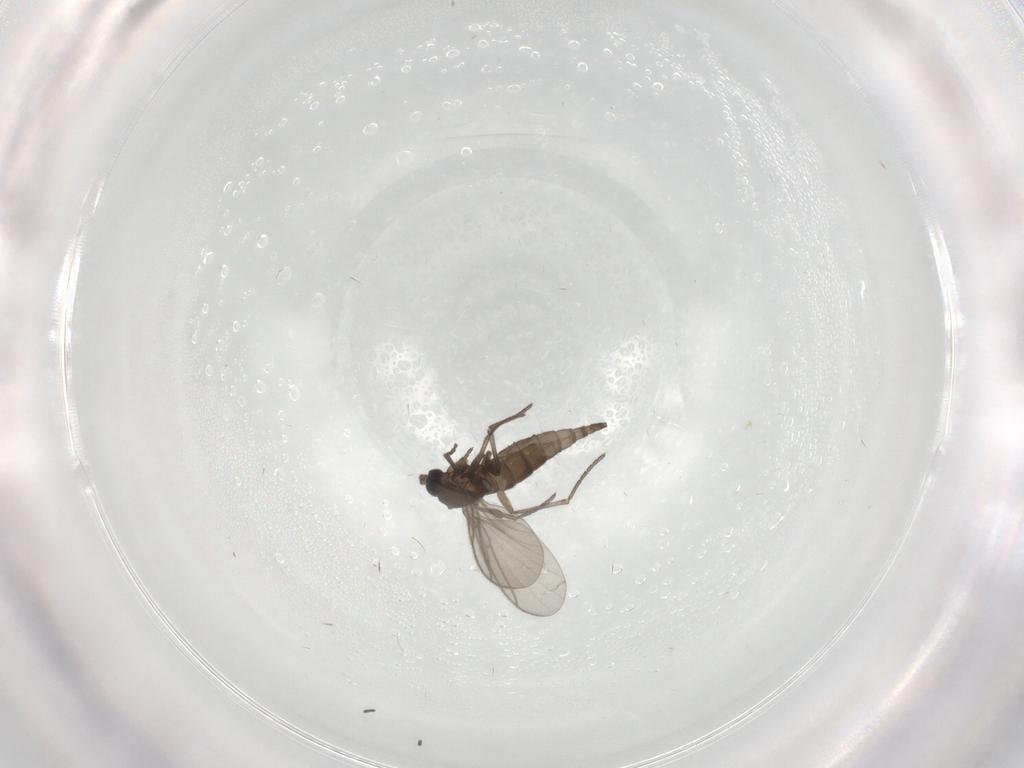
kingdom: Animalia
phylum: Arthropoda
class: Insecta
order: Diptera
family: Sciaridae
